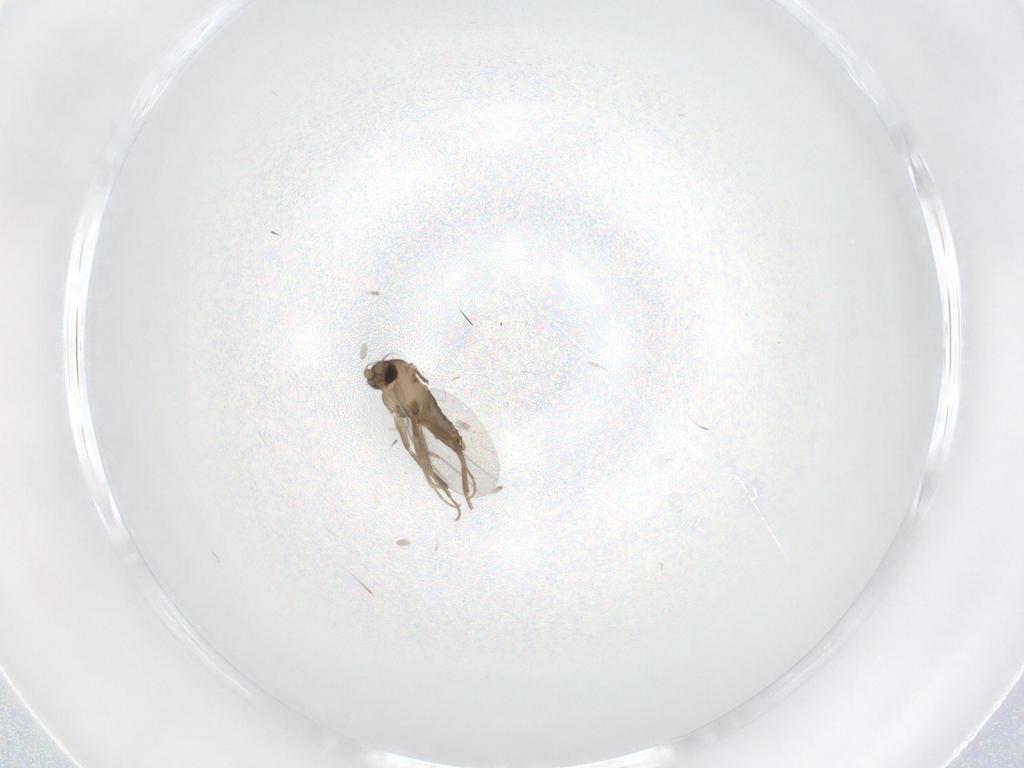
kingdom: Animalia
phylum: Arthropoda
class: Insecta
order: Diptera
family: Chironomidae
